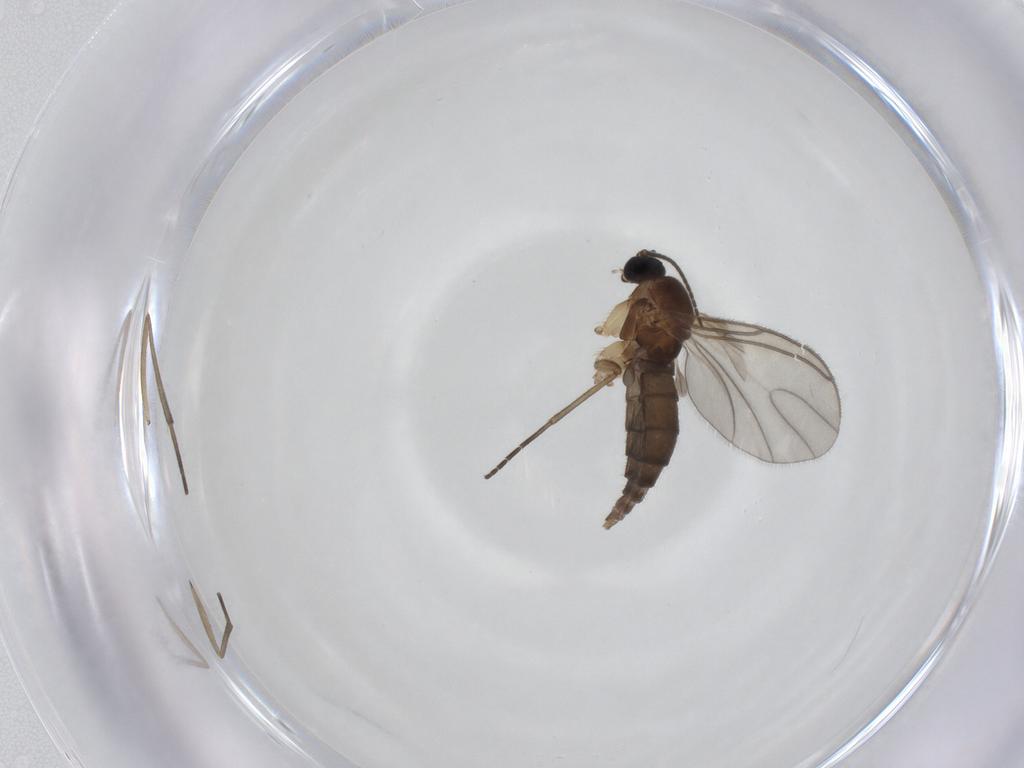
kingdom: Animalia
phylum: Arthropoda
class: Insecta
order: Diptera
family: Sciaridae
